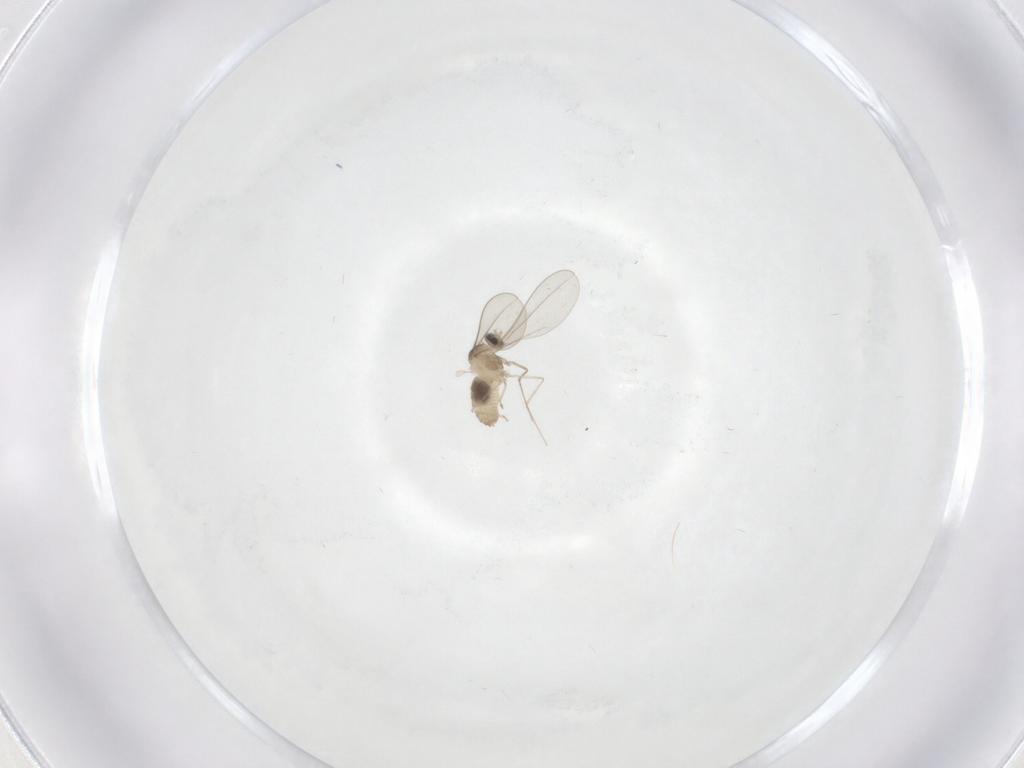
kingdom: Animalia
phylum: Arthropoda
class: Insecta
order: Diptera
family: Cecidomyiidae
